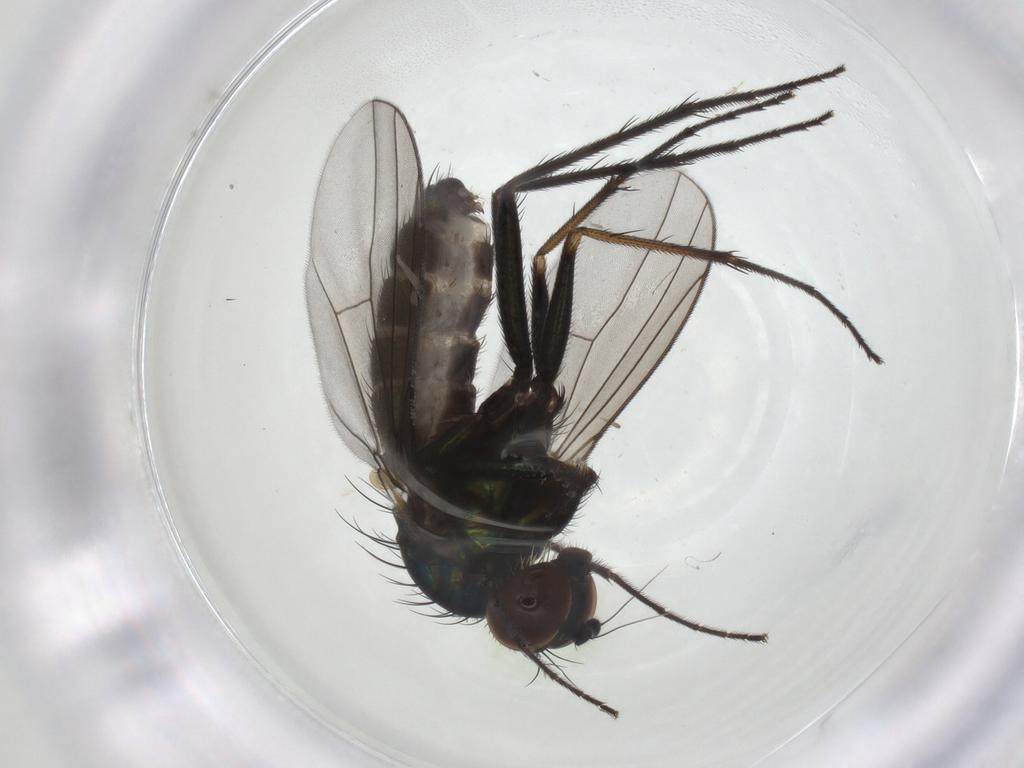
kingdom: Animalia
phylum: Arthropoda
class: Insecta
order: Diptera
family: Dolichopodidae
